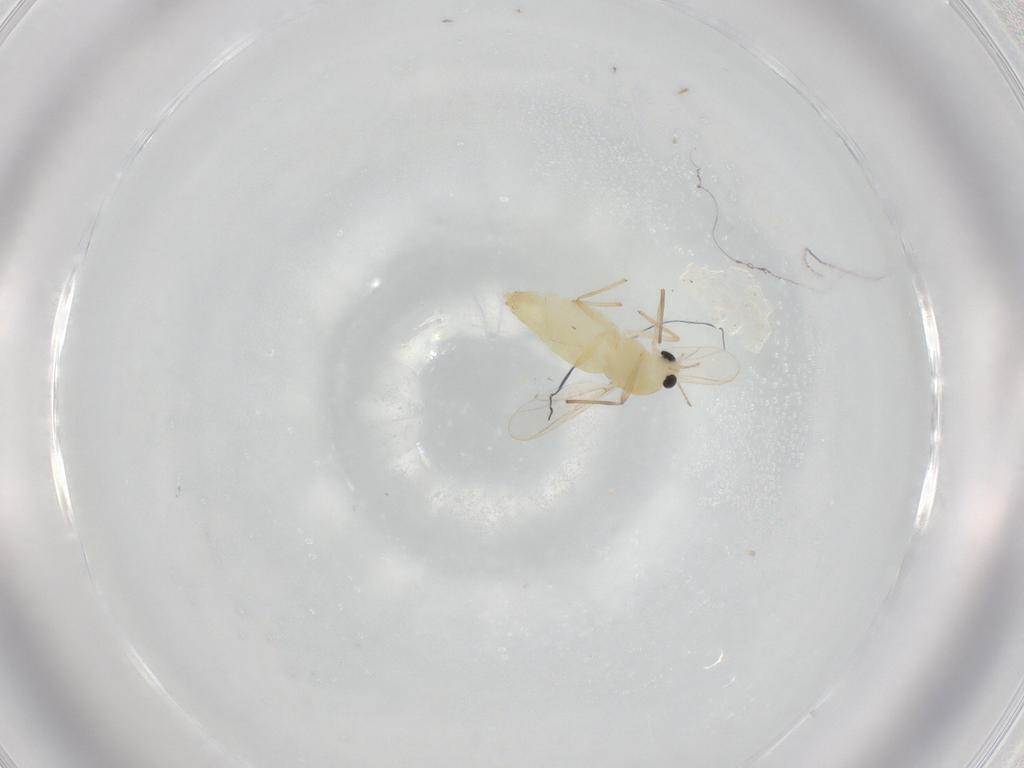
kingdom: Animalia
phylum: Arthropoda
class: Insecta
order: Diptera
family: Chironomidae
